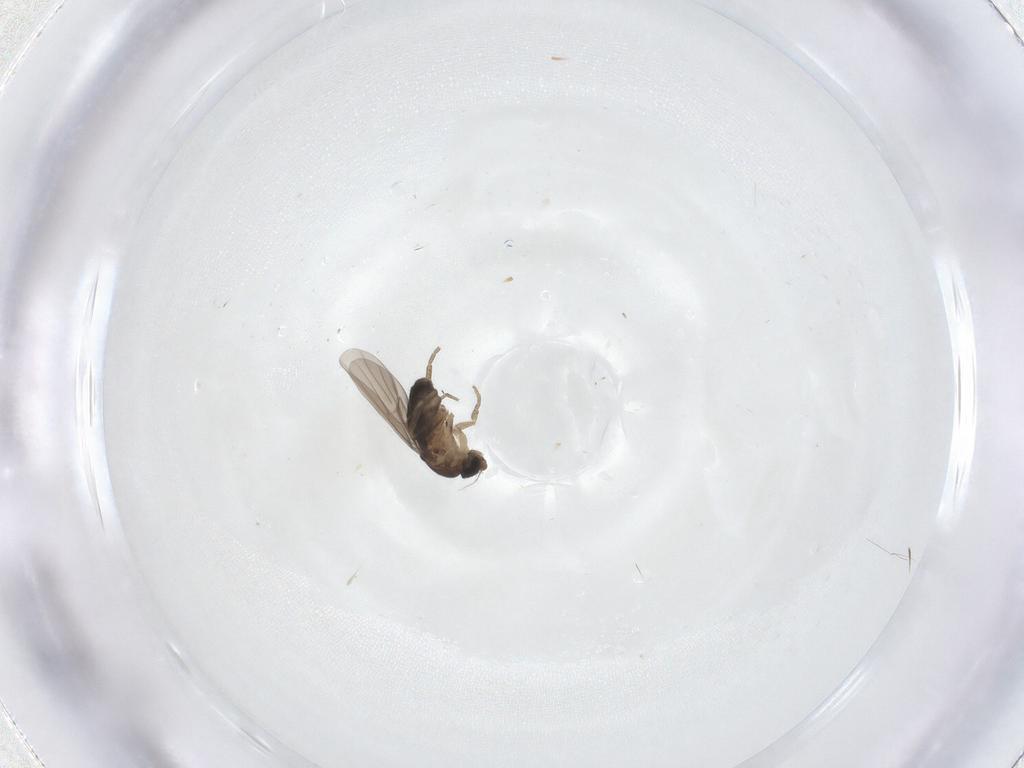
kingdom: Animalia
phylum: Arthropoda
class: Insecta
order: Diptera
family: Phoridae
